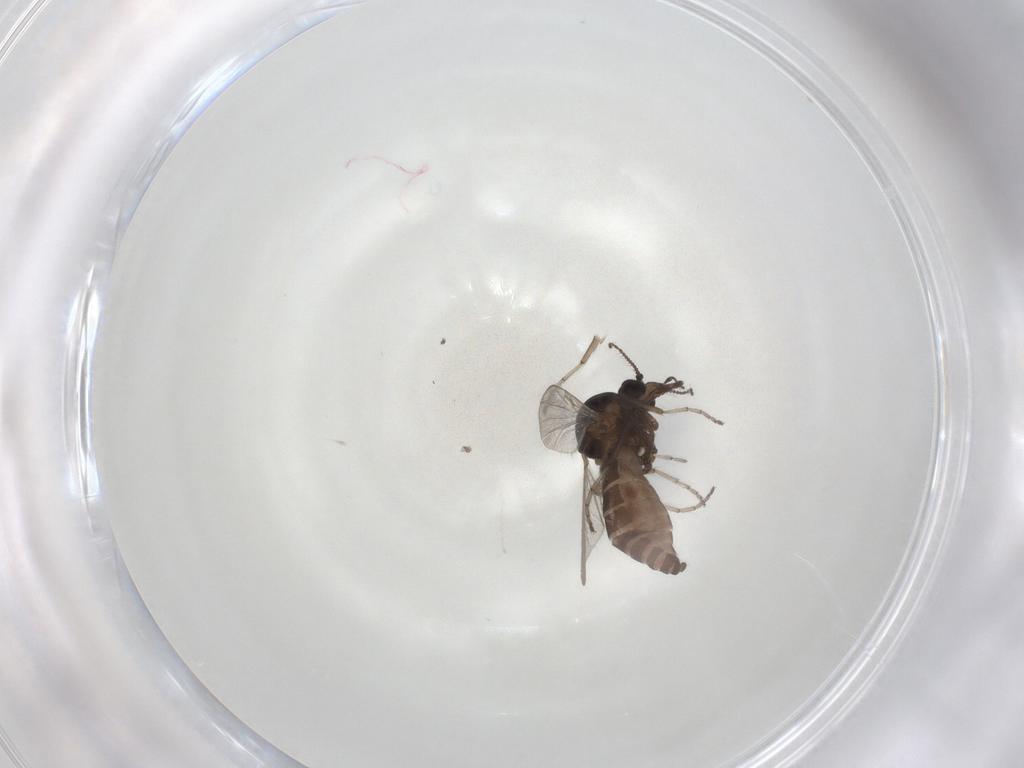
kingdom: Animalia
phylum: Arthropoda
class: Insecta
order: Diptera
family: Ceratopogonidae
